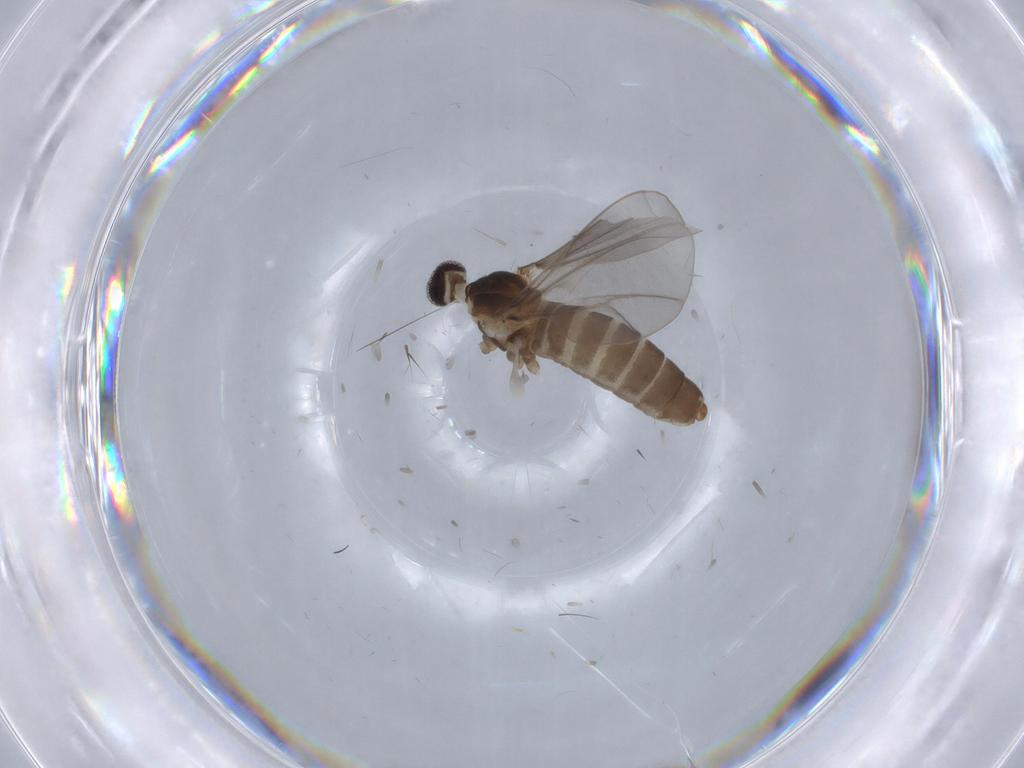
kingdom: Animalia
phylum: Arthropoda
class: Insecta
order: Diptera
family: Cecidomyiidae
